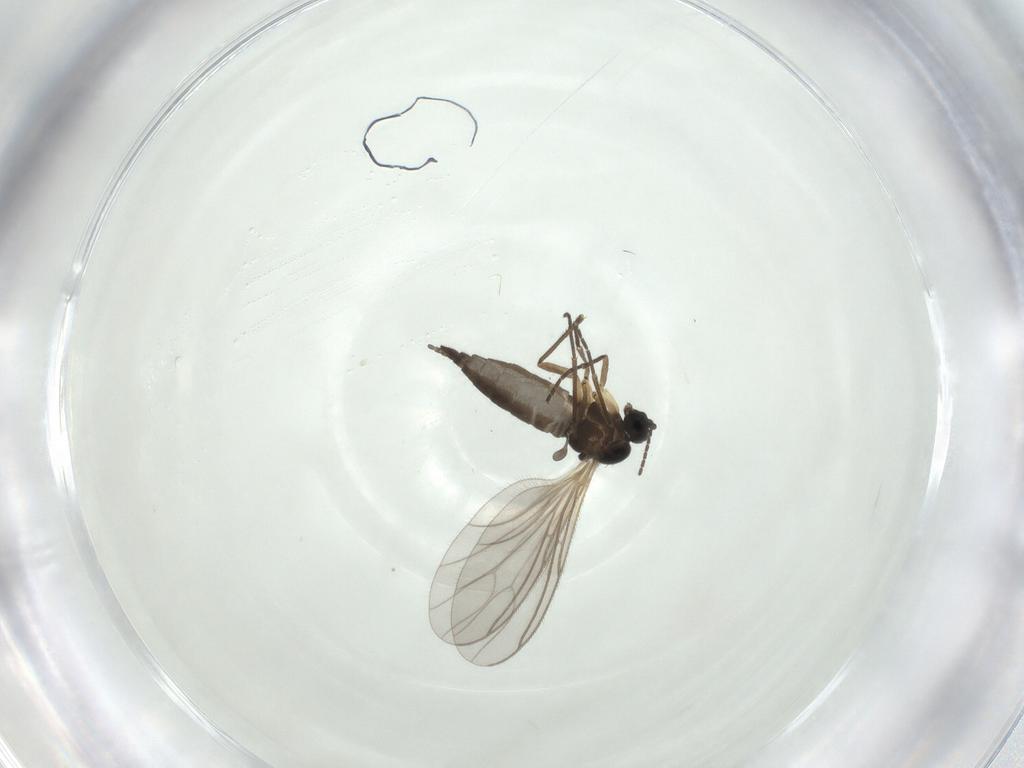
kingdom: Animalia
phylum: Arthropoda
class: Insecta
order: Diptera
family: Sciaridae
